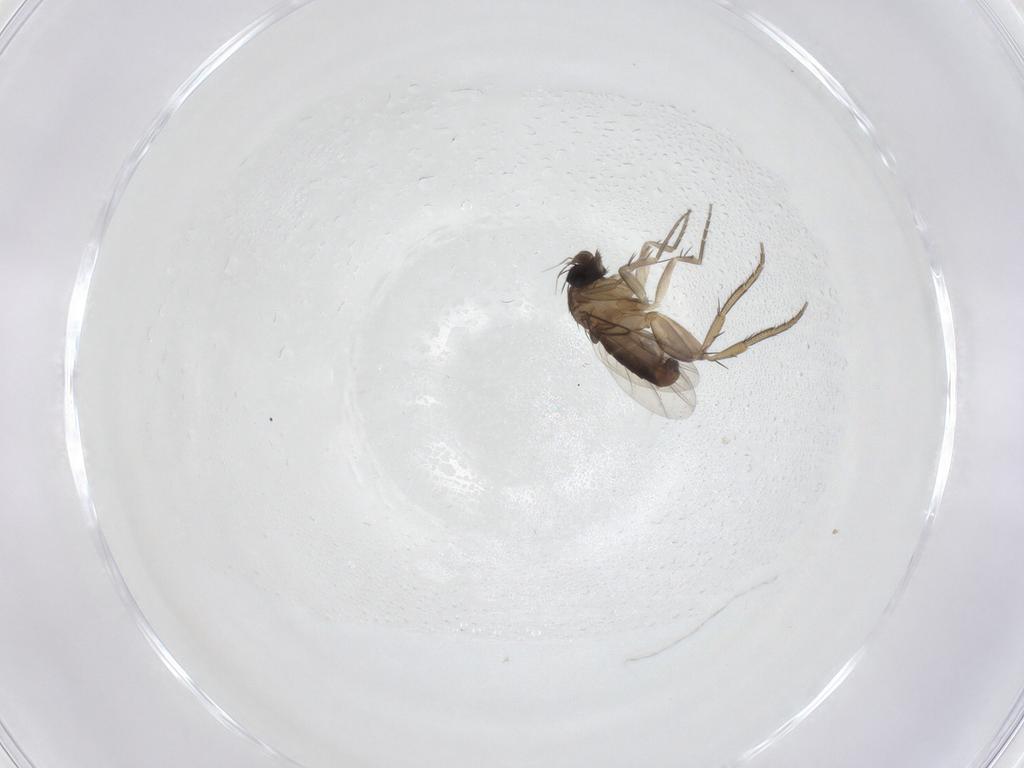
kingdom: Animalia
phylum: Arthropoda
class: Insecta
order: Diptera
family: Phoridae
